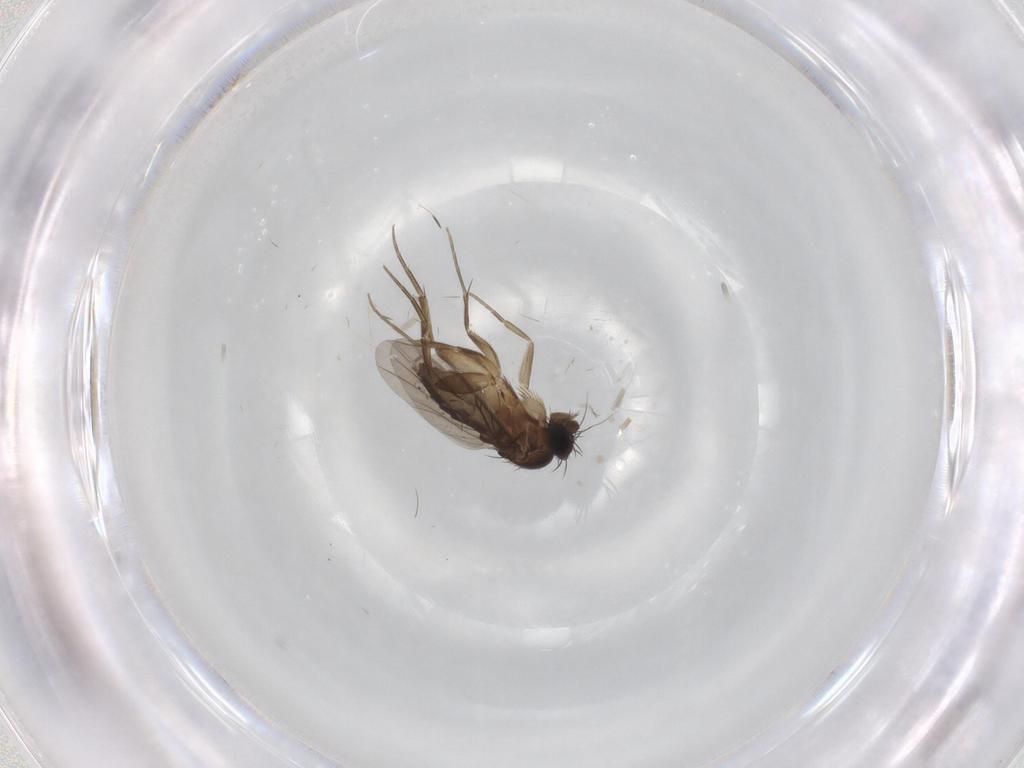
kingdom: Animalia
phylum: Arthropoda
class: Insecta
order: Diptera
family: Phoridae
